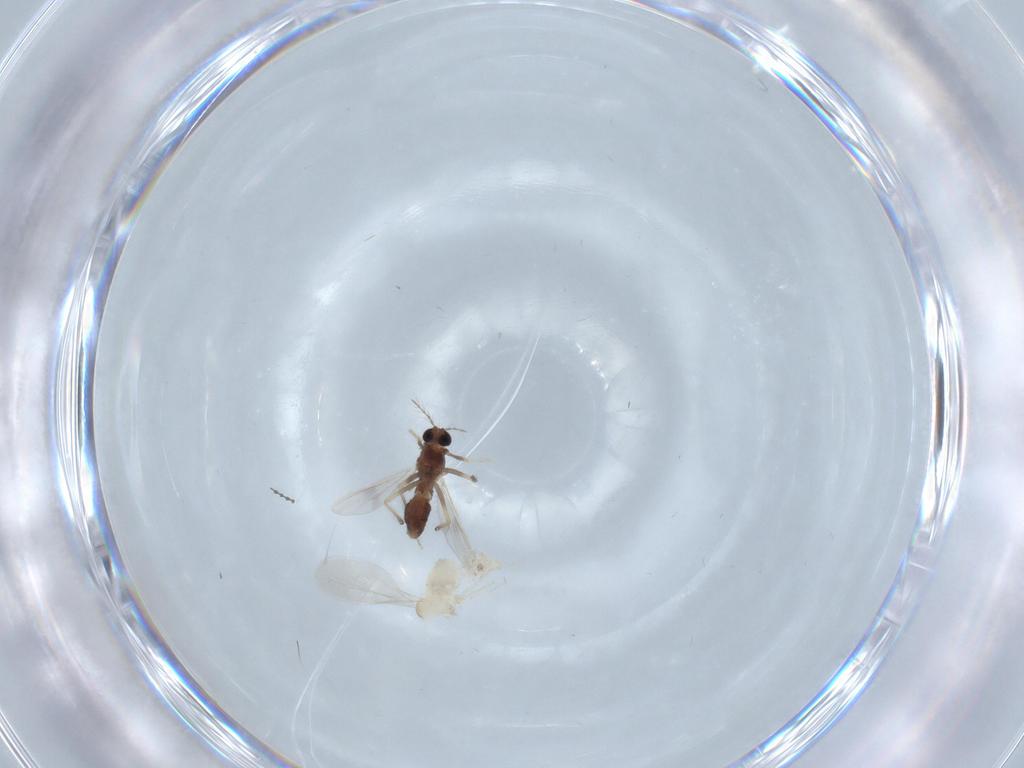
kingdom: Animalia
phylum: Arthropoda
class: Insecta
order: Diptera
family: Chironomidae
